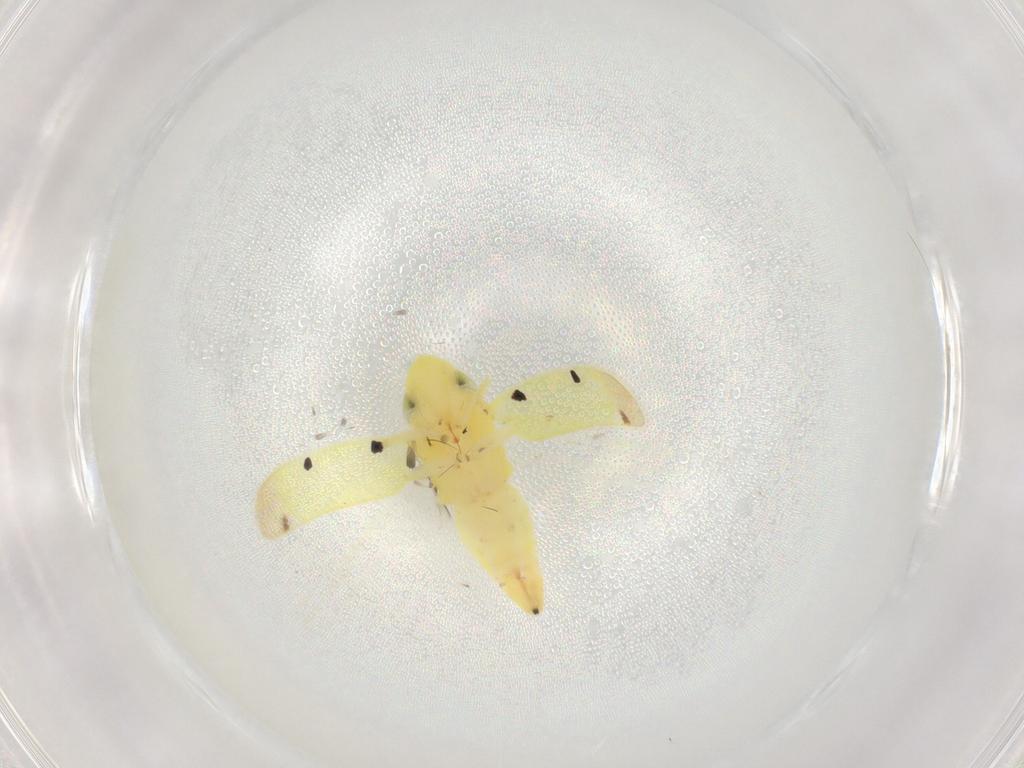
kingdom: Animalia
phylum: Arthropoda
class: Insecta
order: Hemiptera
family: Cicadellidae
